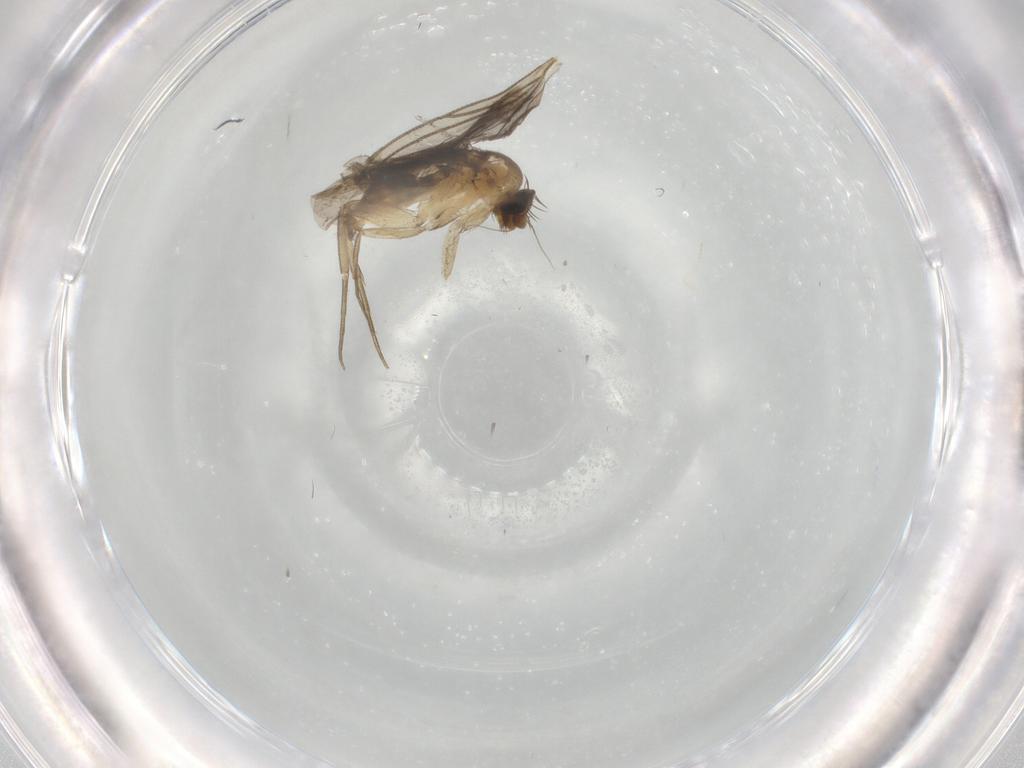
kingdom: Animalia
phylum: Arthropoda
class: Insecta
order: Diptera
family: Phoridae
